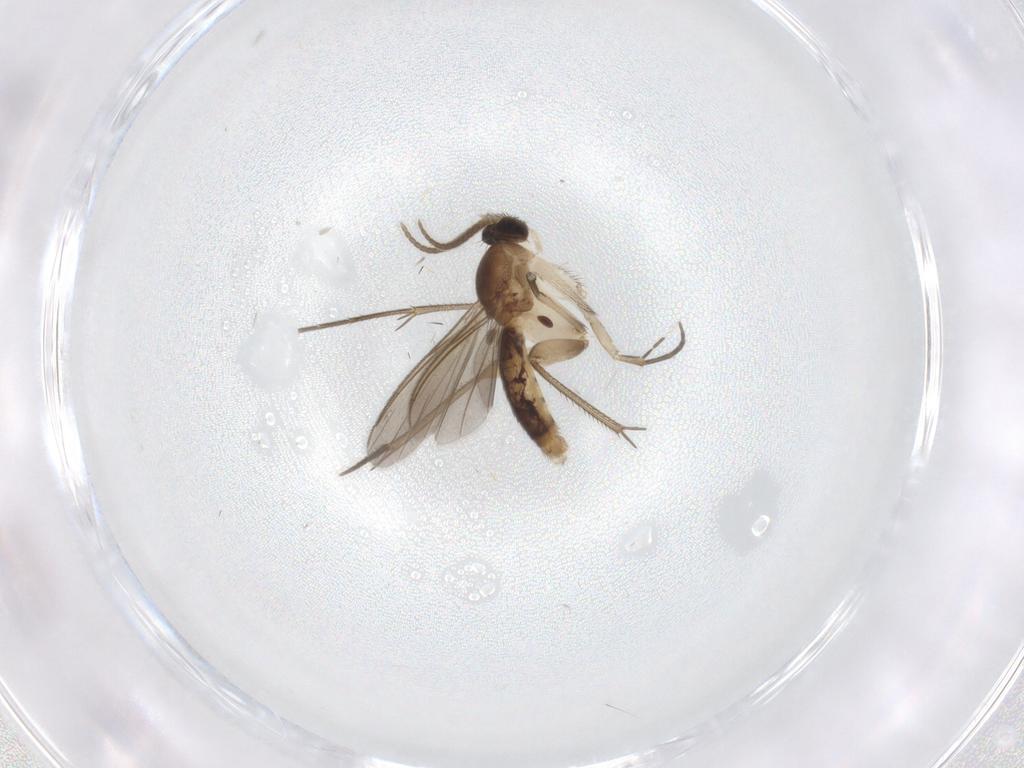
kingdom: Animalia
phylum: Arthropoda
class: Insecta
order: Diptera
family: Mycetophilidae
